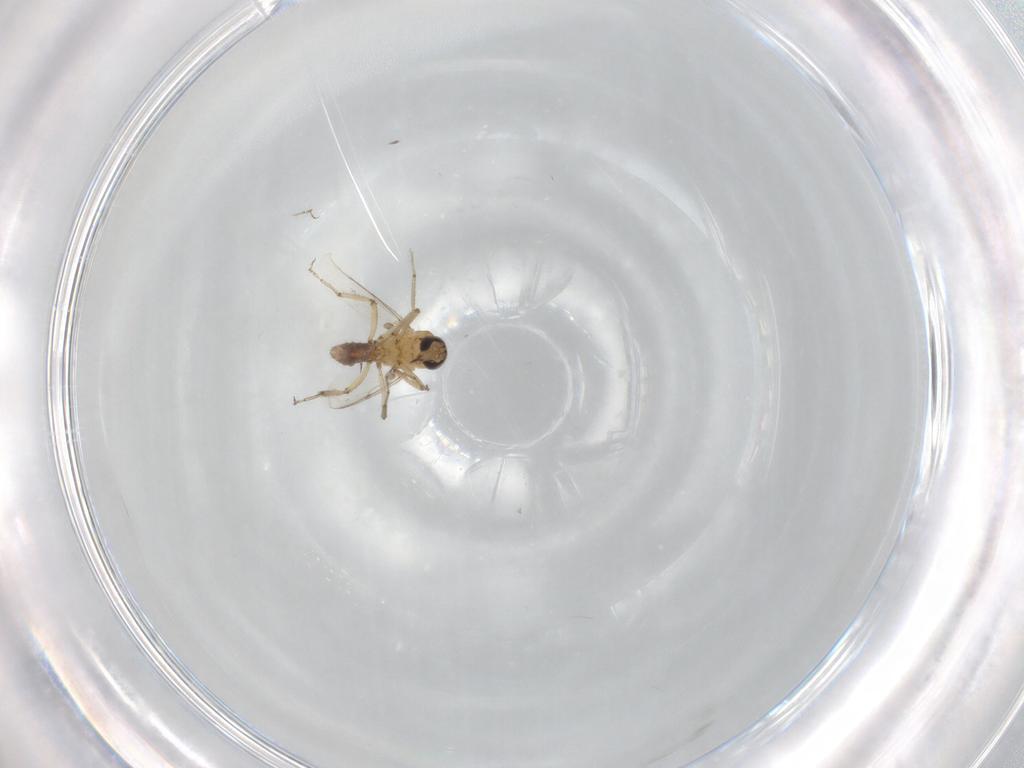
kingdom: Animalia
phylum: Arthropoda
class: Insecta
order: Diptera
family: Ceratopogonidae
